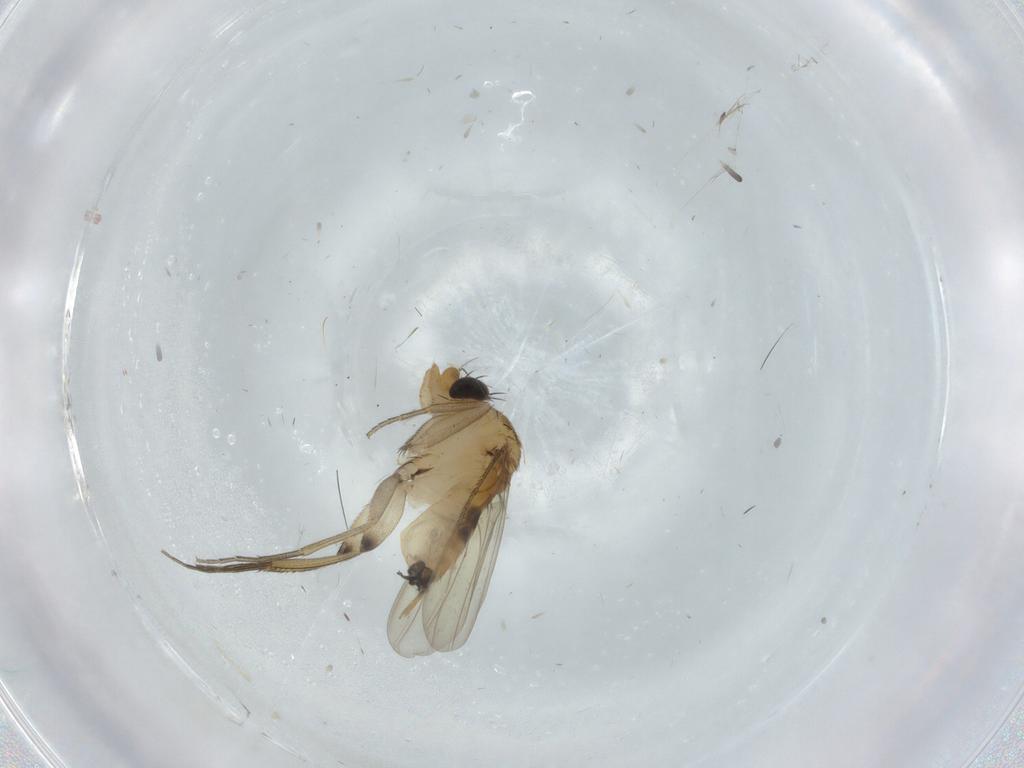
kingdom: Animalia
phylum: Arthropoda
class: Insecta
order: Diptera
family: Phoridae
